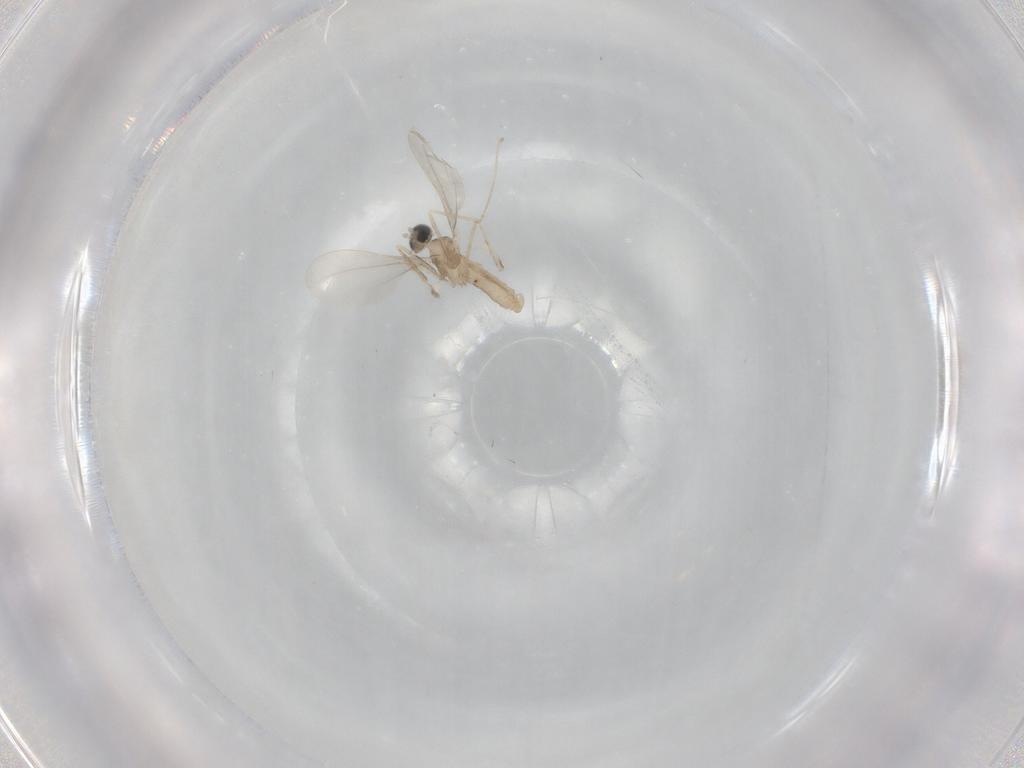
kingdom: Animalia
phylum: Arthropoda
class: Insecta
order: Diptera
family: Cecidomyiidae
